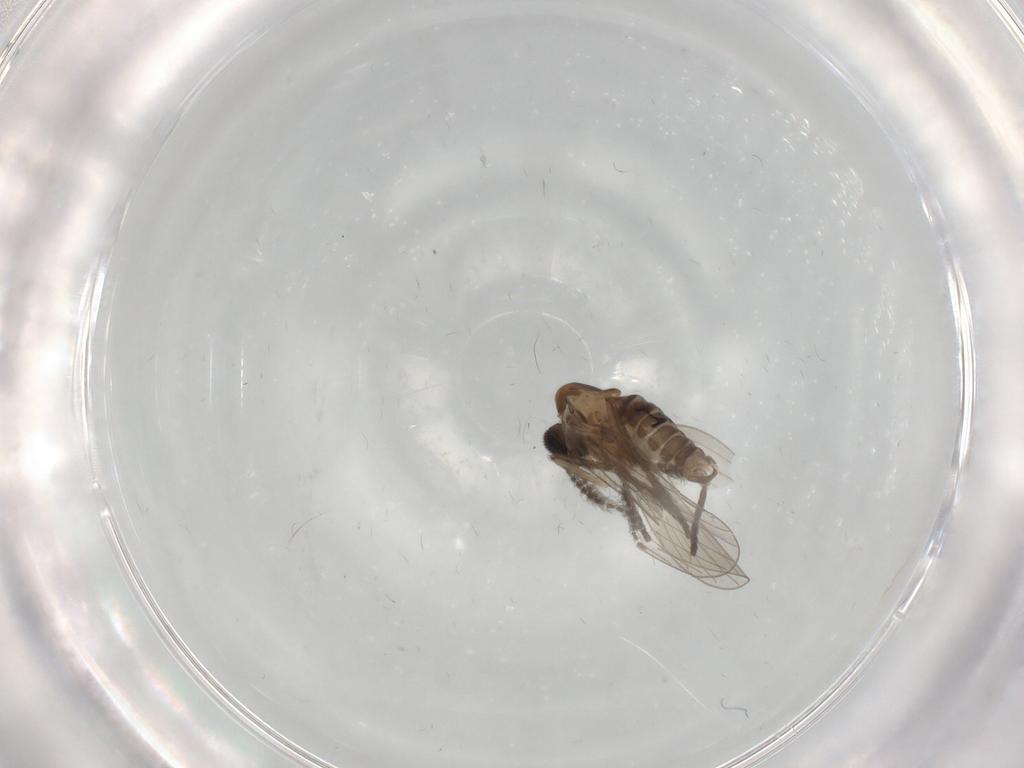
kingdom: Animalia
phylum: Arthropoda
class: Insecta
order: Diptera
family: Psychodidae
